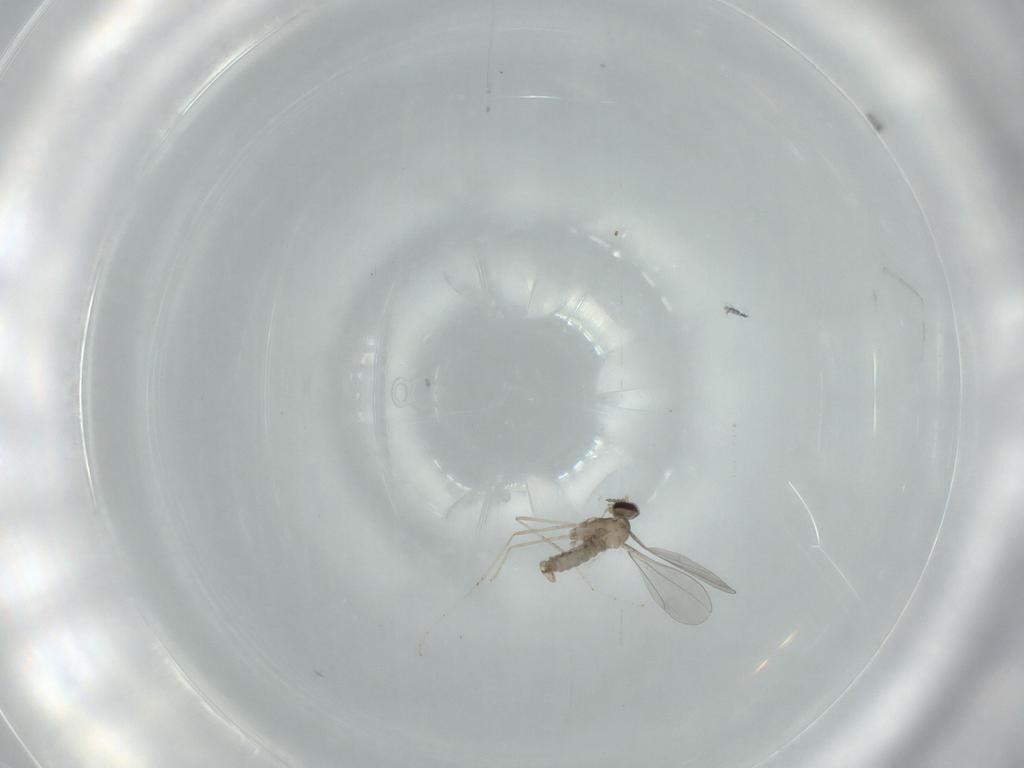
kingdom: Animalia
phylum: Arthropoda
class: Insecta
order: Diptera
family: Cecidomyiidae
